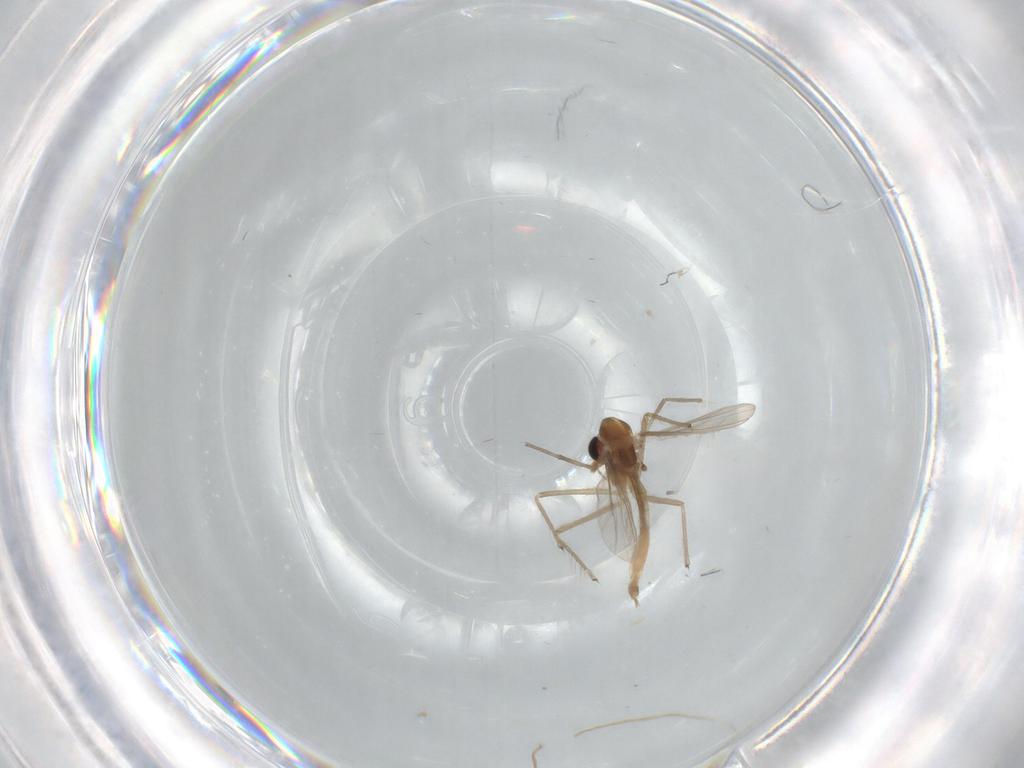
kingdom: Animalia
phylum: Arthropoda
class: Insecta
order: Diptera
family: Chironomidae
